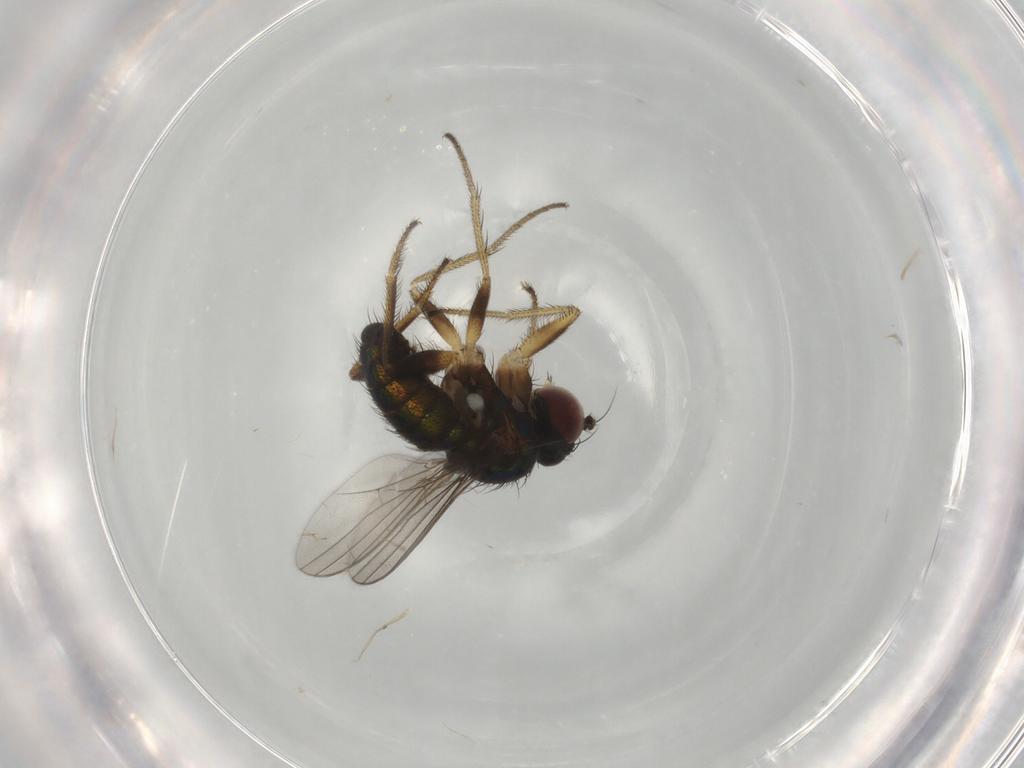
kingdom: Animalia
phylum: Arthropoda
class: Insecta
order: Diptera
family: Dolichopodidae
